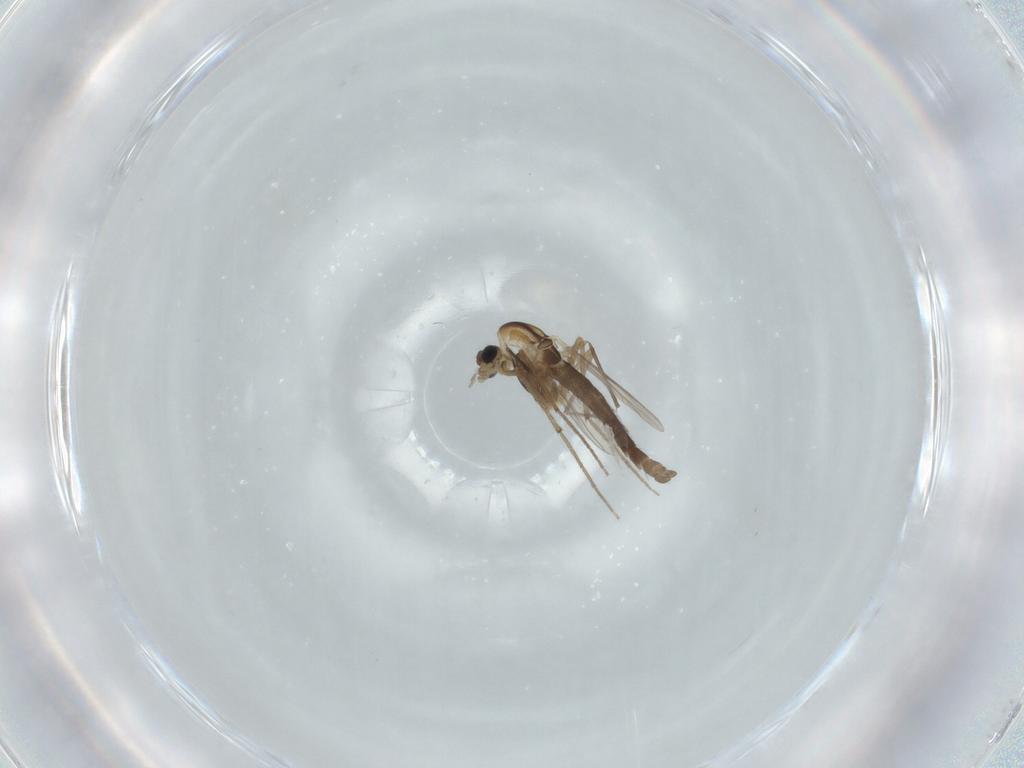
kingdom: Animalia
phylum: Arthropoda
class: Insecta
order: Diptera
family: Chironomidae
